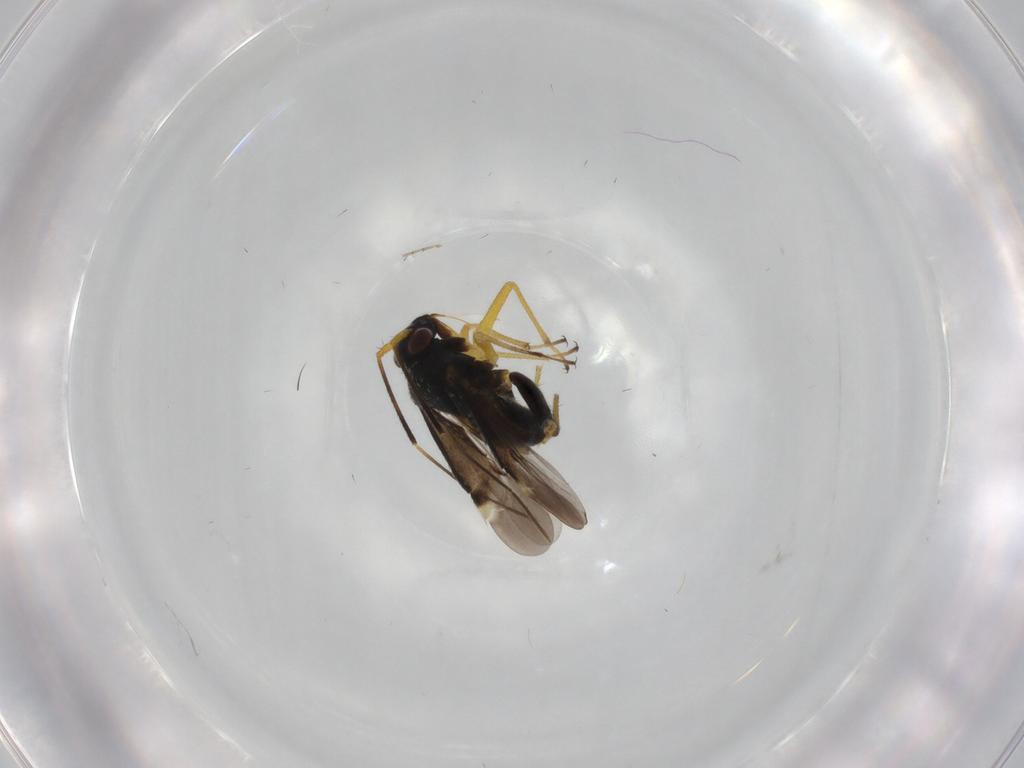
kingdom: Animalia
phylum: Arthropoda
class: Insecta
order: Hemiptera
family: Miridae
